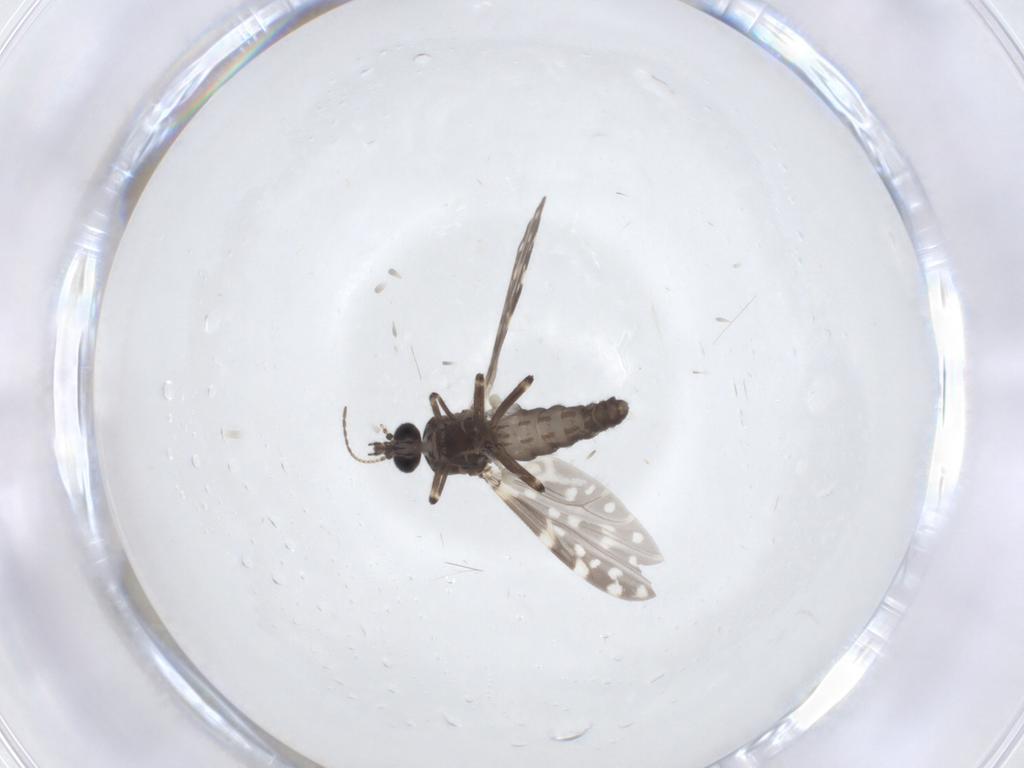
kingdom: Animalia
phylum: Arthropoda
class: Insecta
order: Diptera
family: Ceratopogonidae
